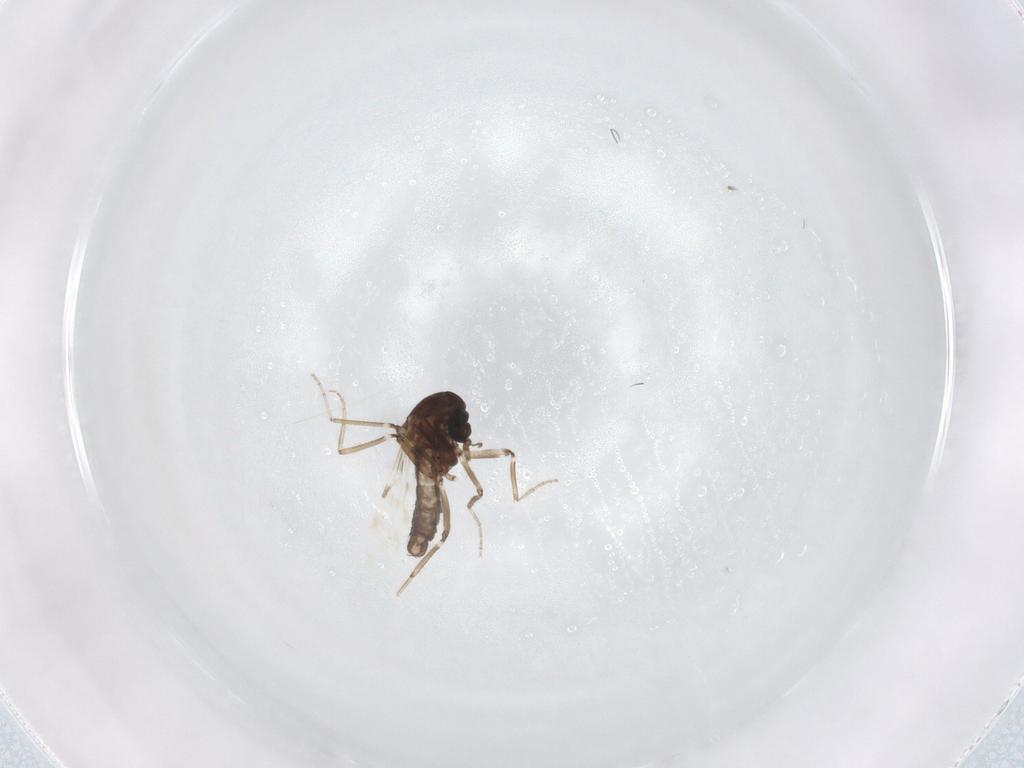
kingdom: Animalia
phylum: Arthropoda
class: Insecta
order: Diptera
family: Ceratopogonidae
